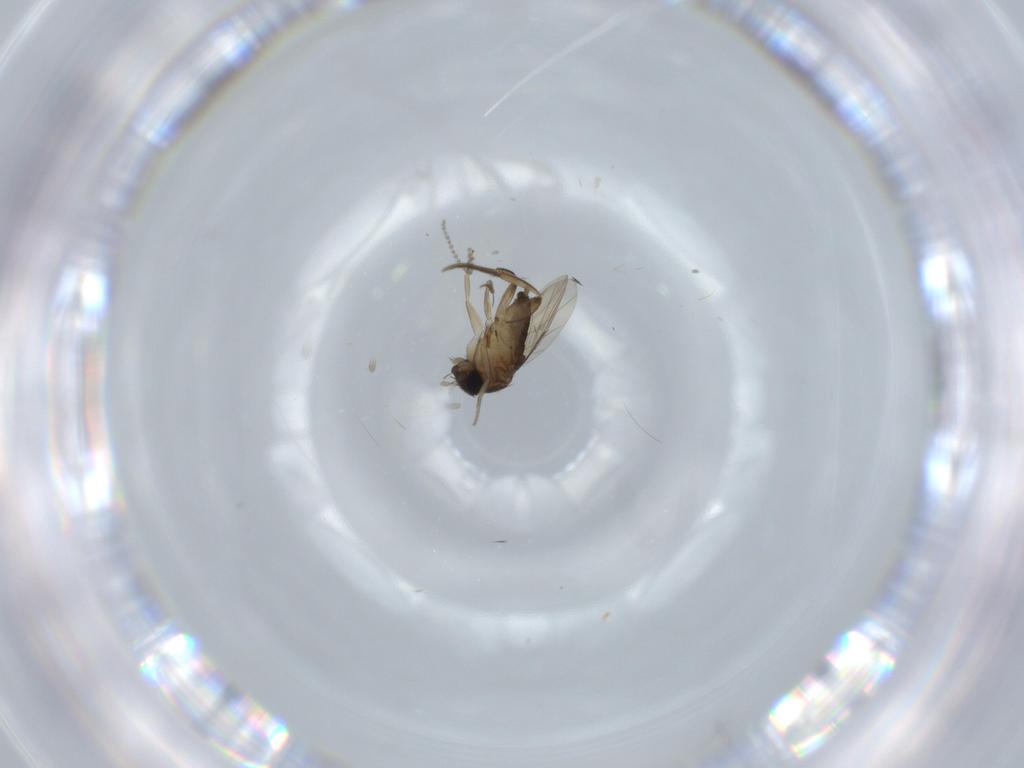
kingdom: Animalia
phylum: Arthropoda
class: Insecta
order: Diptera
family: Phoridae
